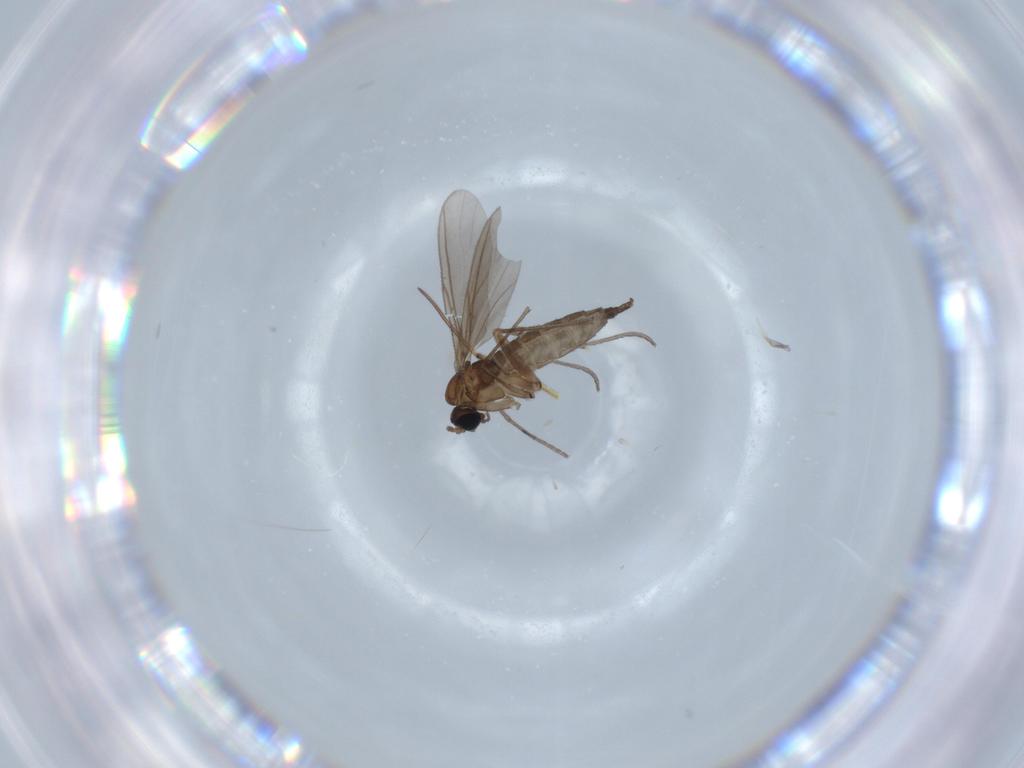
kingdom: Animalia
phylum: Arthropoda
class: Insecta
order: Diptera
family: Sciaridae
